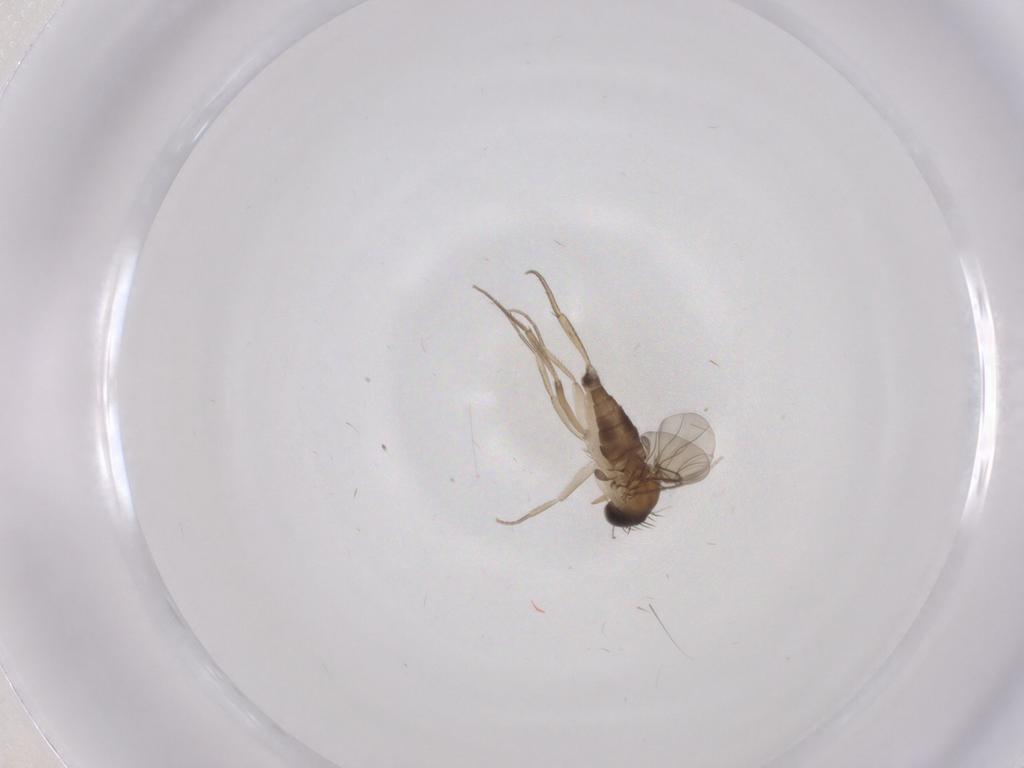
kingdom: Animalia
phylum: Arthropoda
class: Insecta
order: Diptera
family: Phoridae
